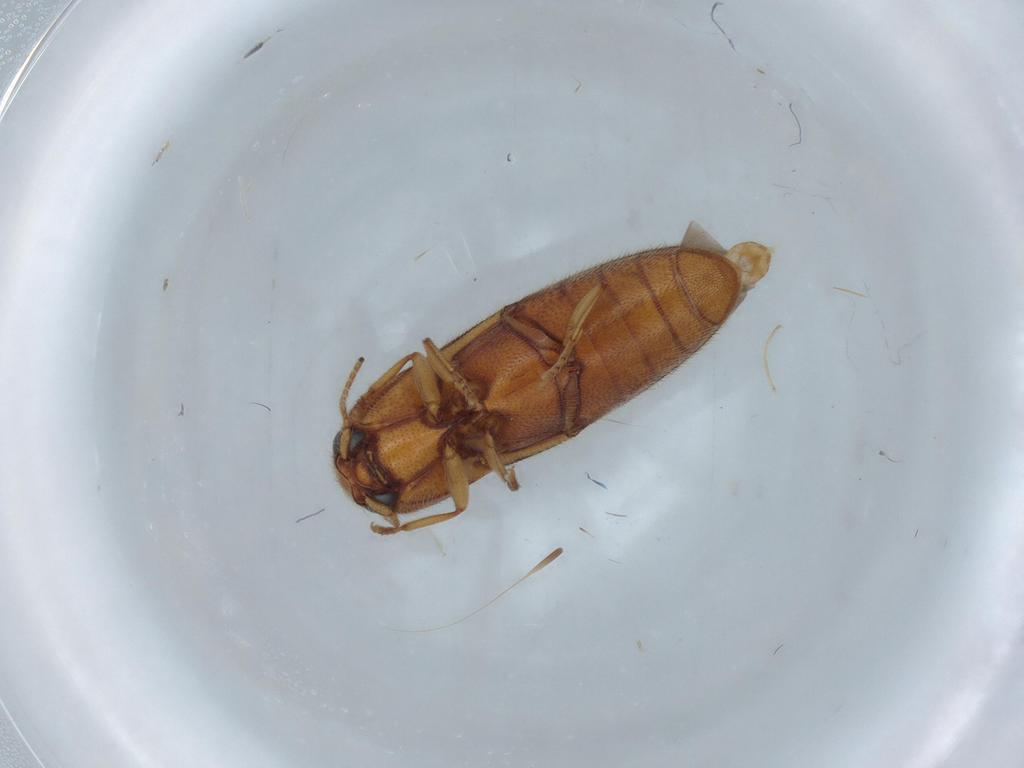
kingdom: Animalia
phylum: Arthropoda
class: Insecta
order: Coleoptera
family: Elateridae
